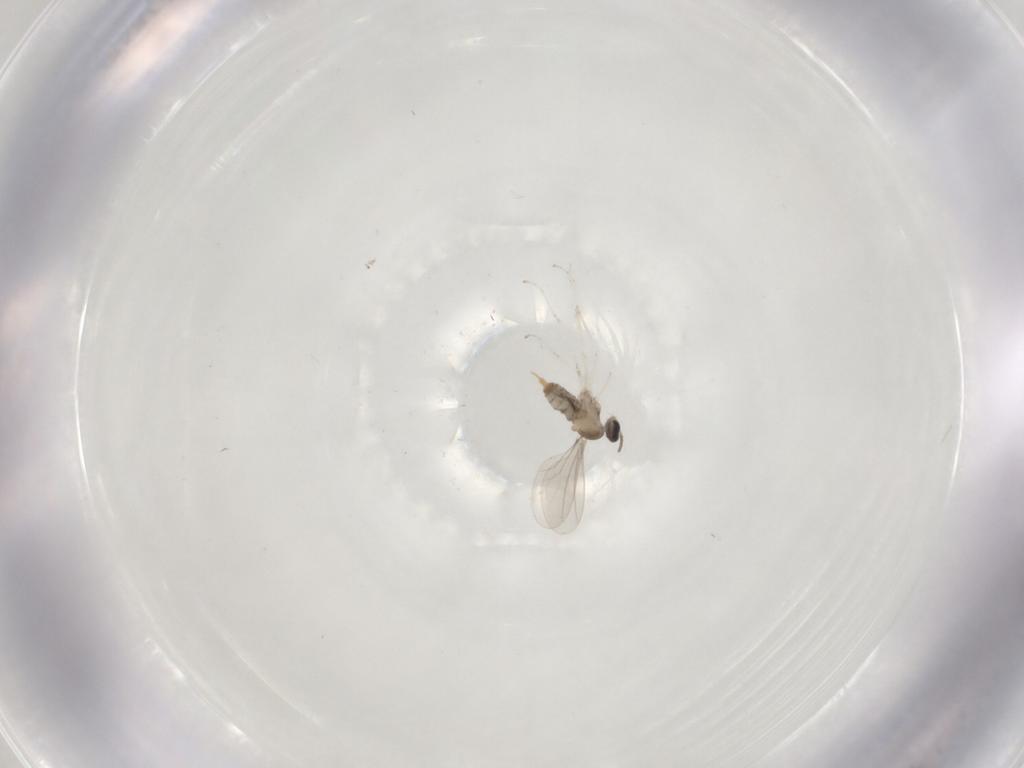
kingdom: Animalia
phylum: Arthropoda
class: Insecta
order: Diptera
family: Cecidomyiidae
